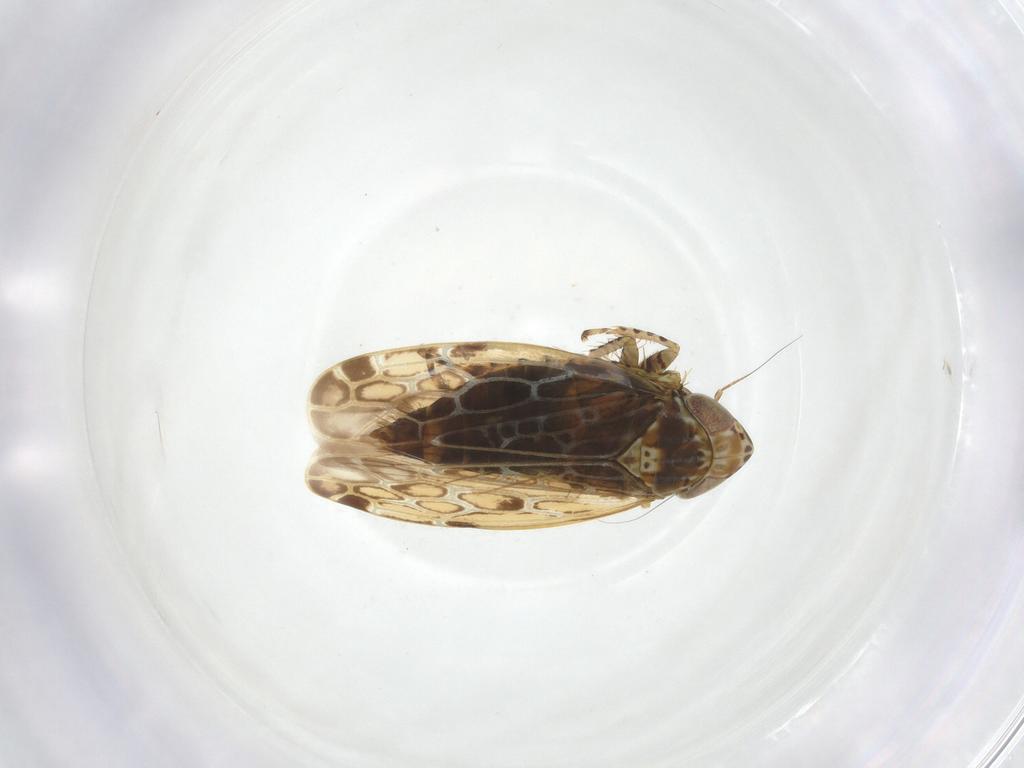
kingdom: Animalia
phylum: Arthropoda
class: Insecta
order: Hemiptera
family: Cicadellidae
